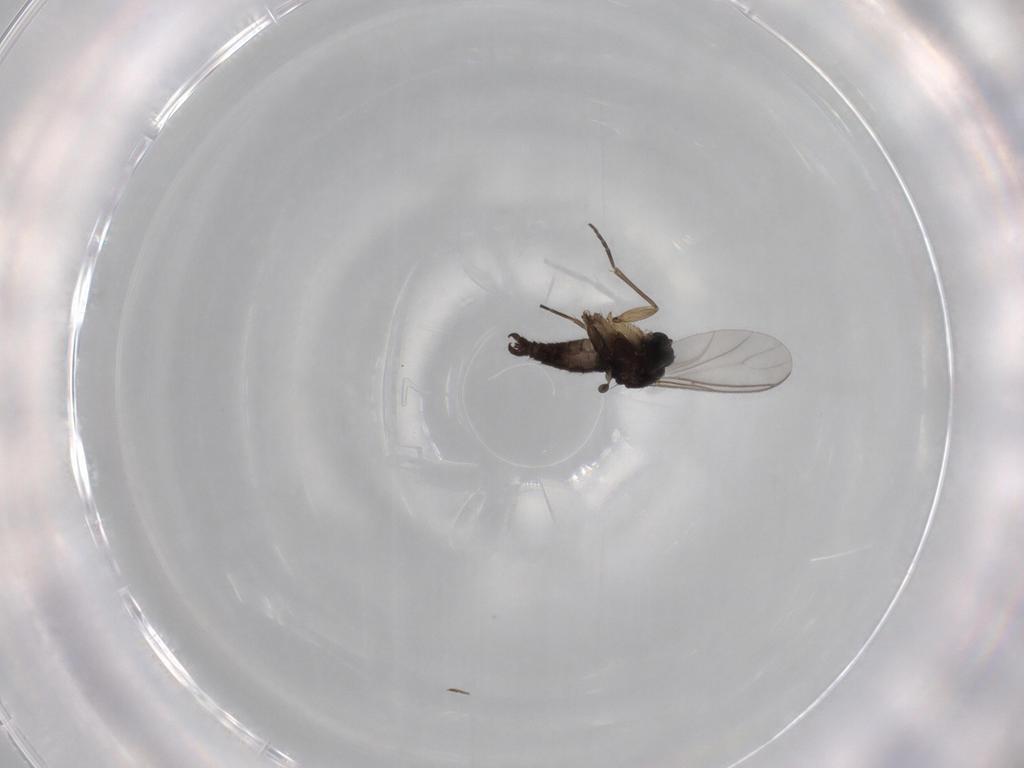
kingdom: Animalia
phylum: Arthropoda
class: Insecta
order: Diptera
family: Sciaridae
